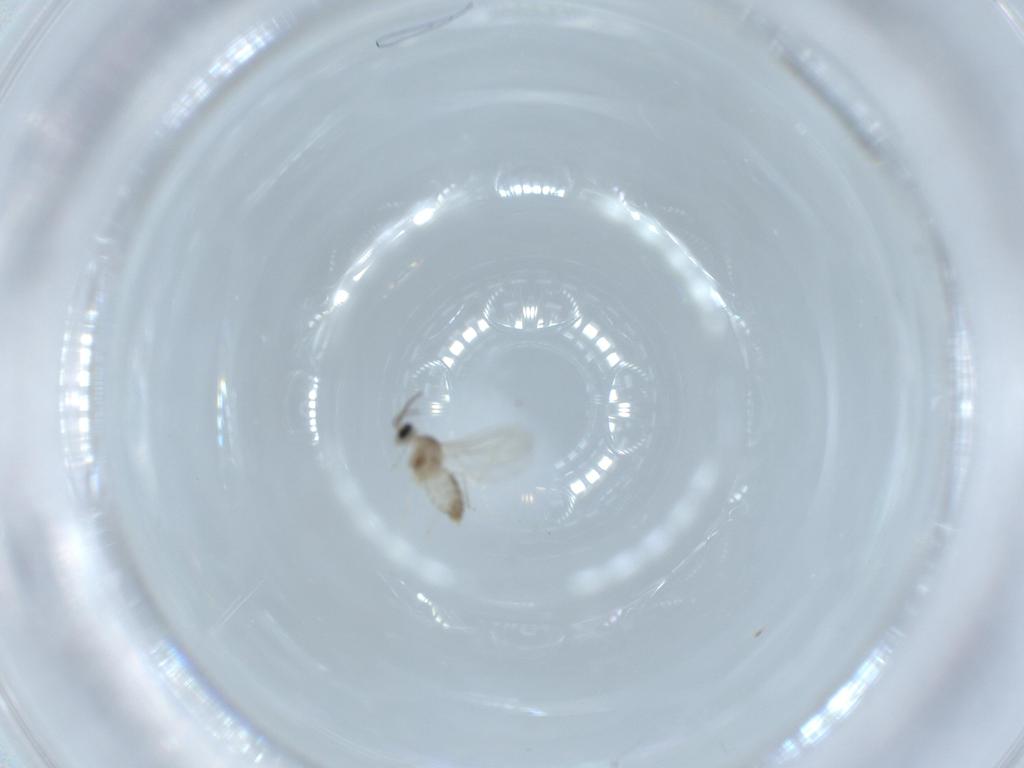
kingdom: Animalia
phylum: Arthropoda
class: Insecta
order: Diptera
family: Cecidomyiidae
